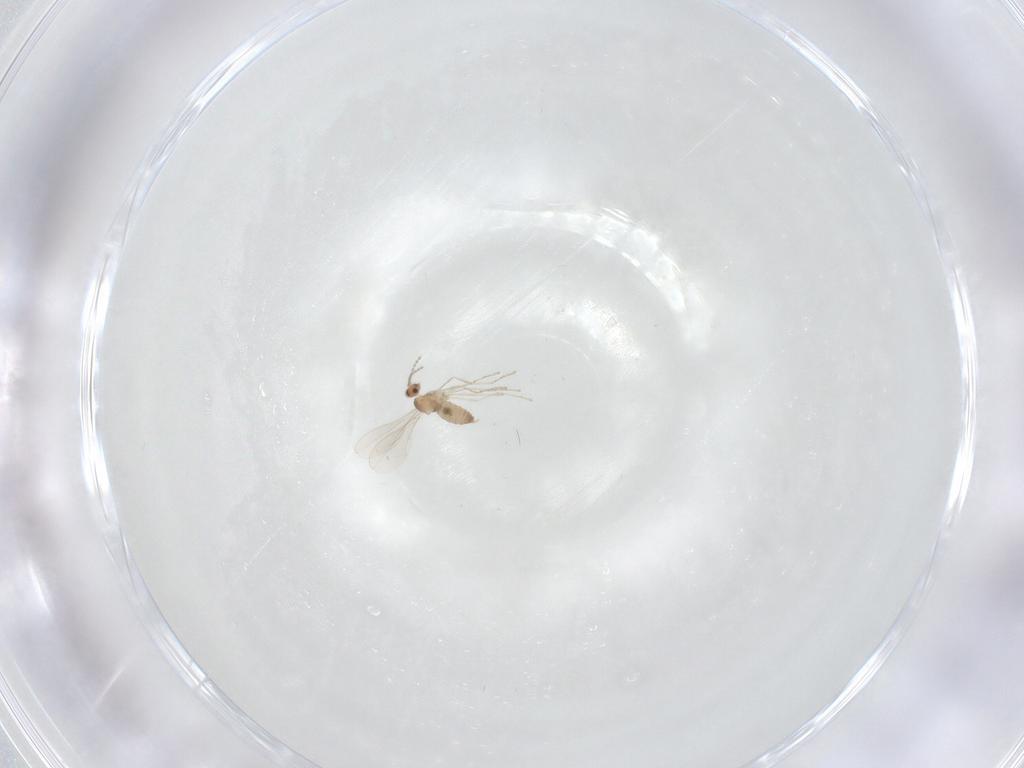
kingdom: Animalia
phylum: Arthropoda
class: Insecta
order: Diptera
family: Cecidomyiidae
